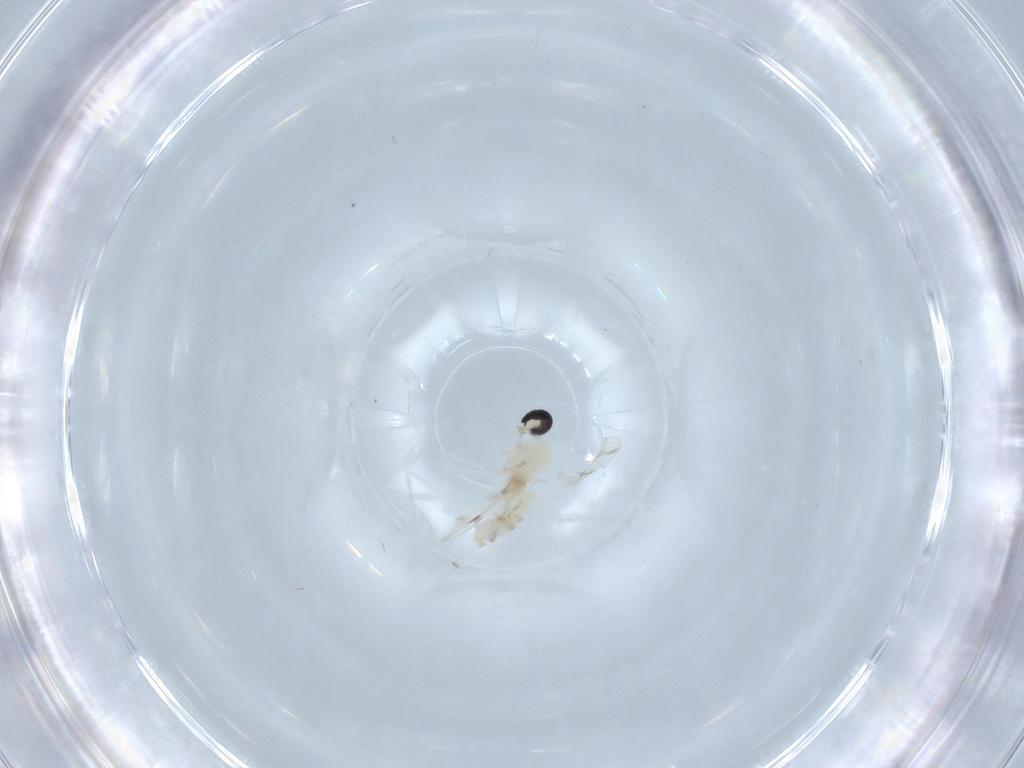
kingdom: Animalia
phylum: Arthropoda
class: Insecta
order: Diptera
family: Cecidomyiidae
